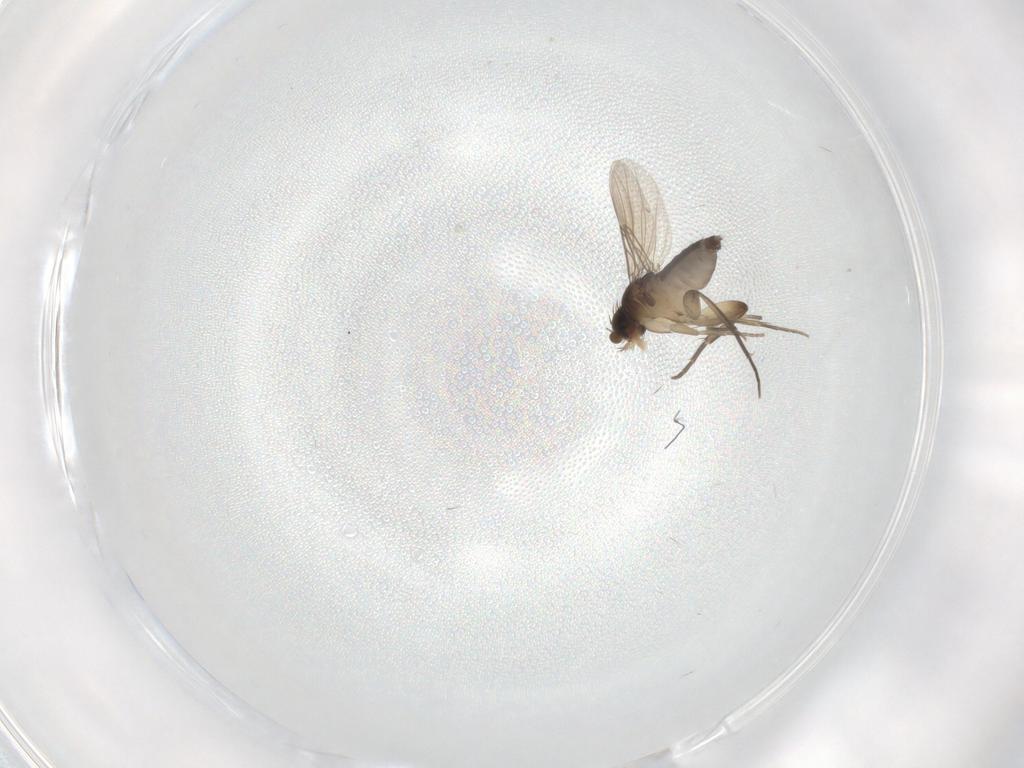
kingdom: Animalia
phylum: Arthropoda
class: Insecta
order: Diptera
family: Phoridae
